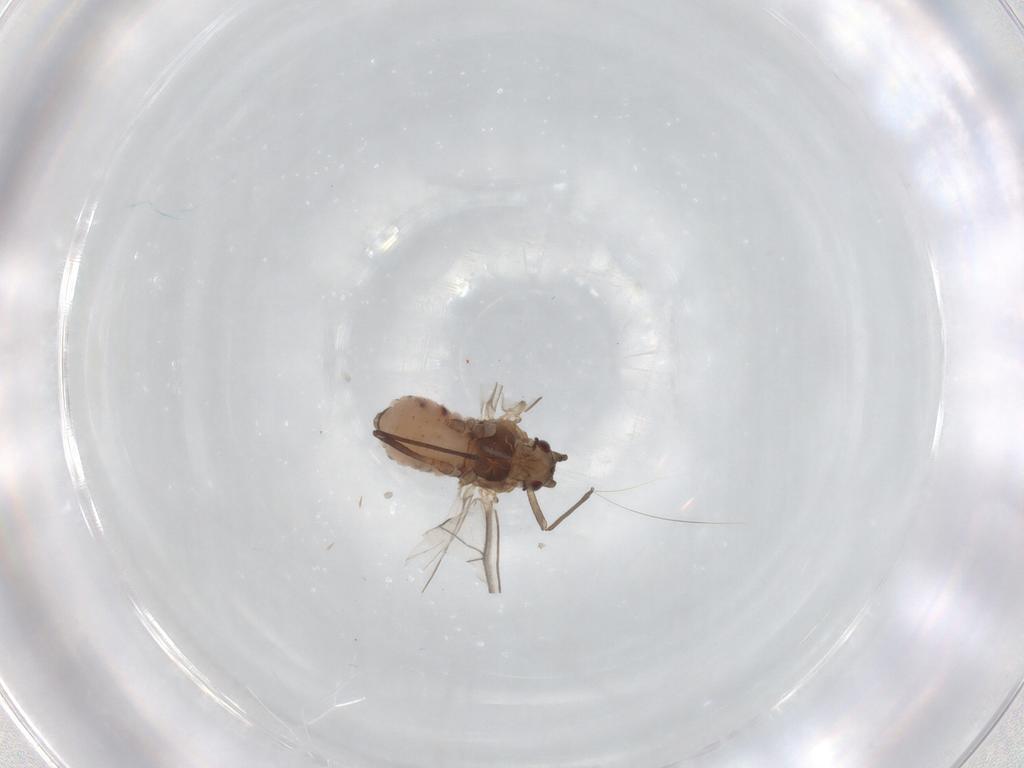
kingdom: Animalia
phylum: Arthropoda
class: Insecta
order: Hemiptera
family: Aphididae
